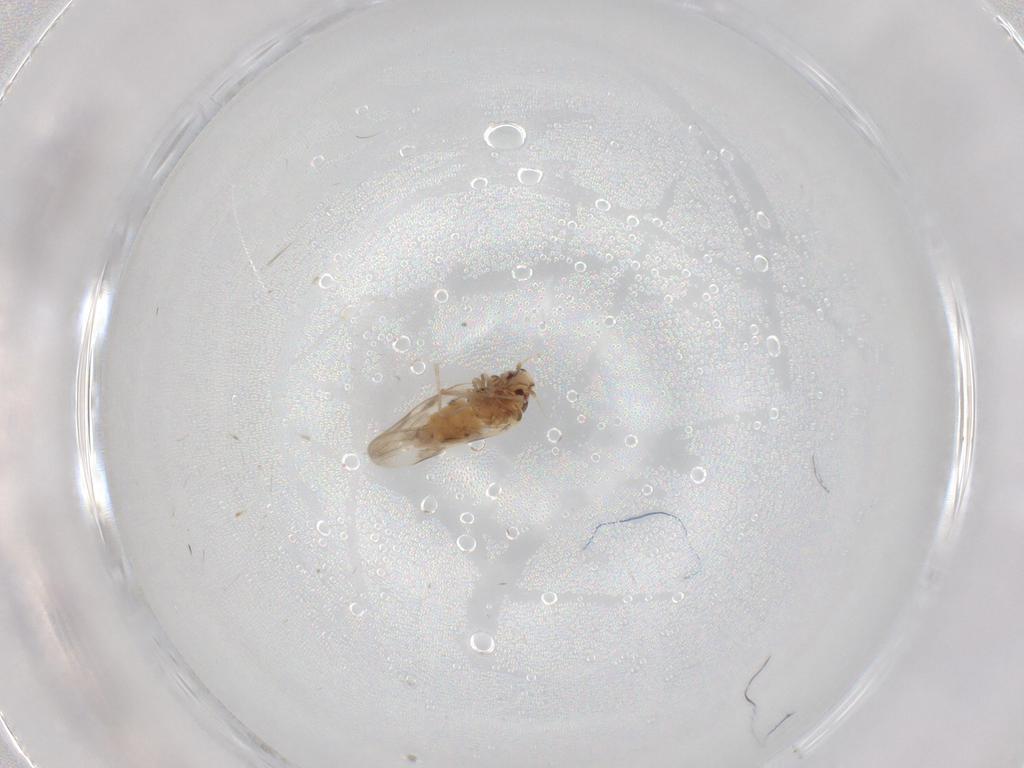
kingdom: Animalia
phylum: Arthropoda
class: Insecta
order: Hemiptera
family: Aleyrodidae
